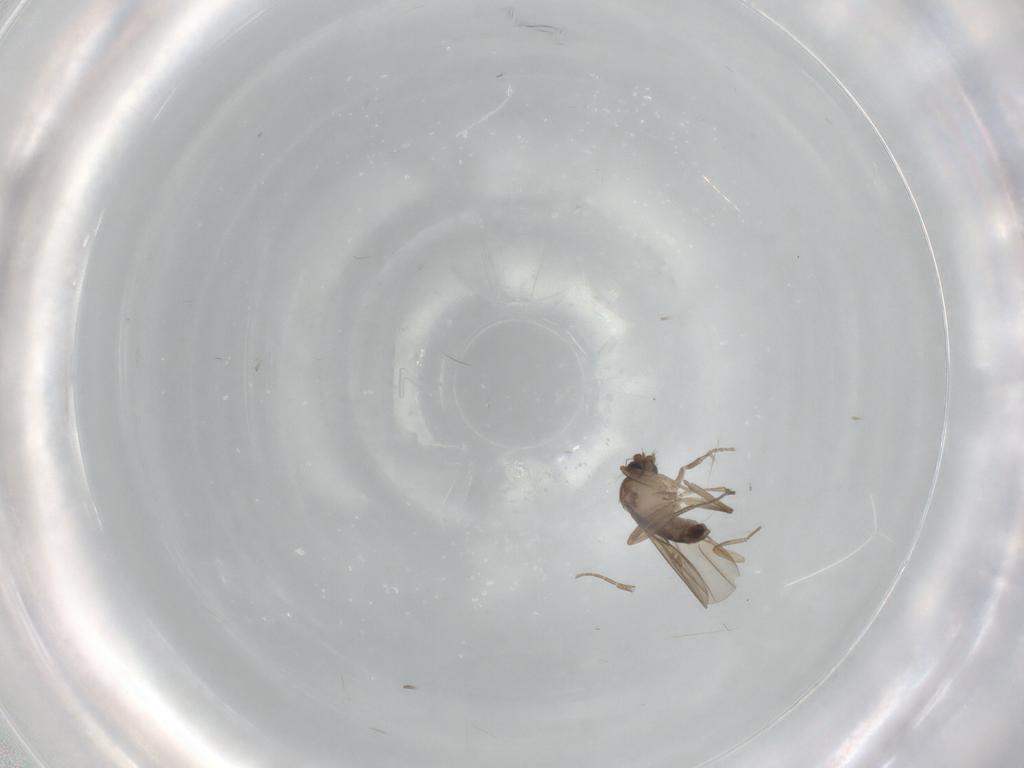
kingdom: Animalia
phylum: Arthropoda
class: Insecta
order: Diptera
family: Phoridae
